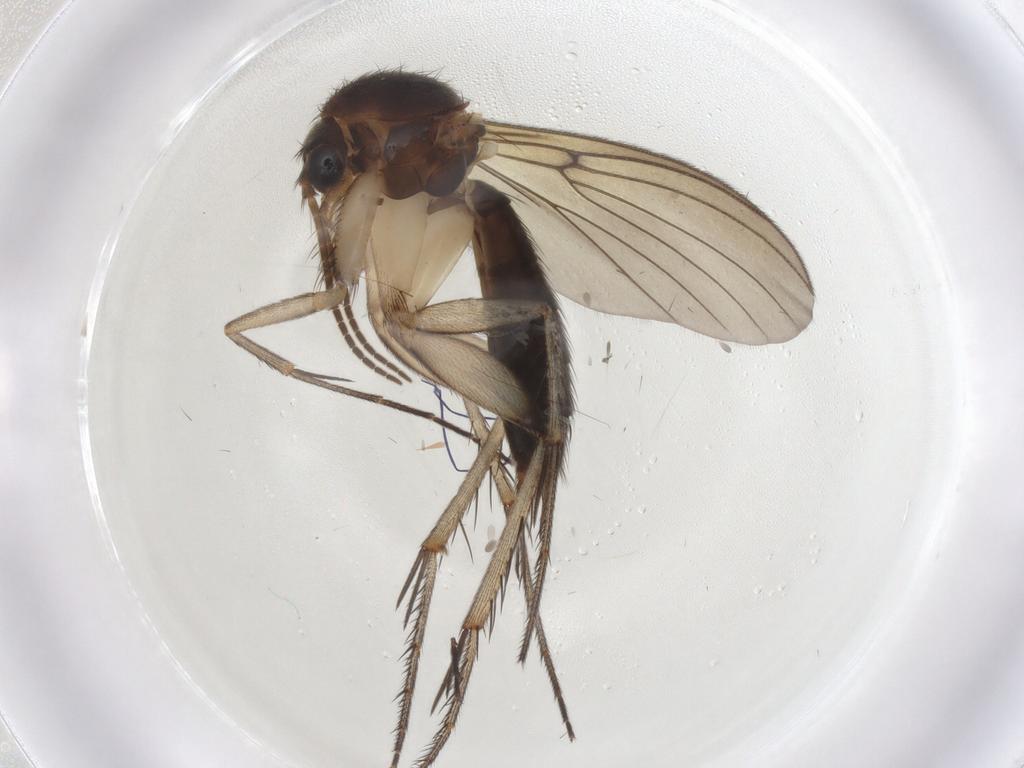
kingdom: Animalia
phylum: Arthropoda
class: Insecta
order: Diptera
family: Mycetophilidae
